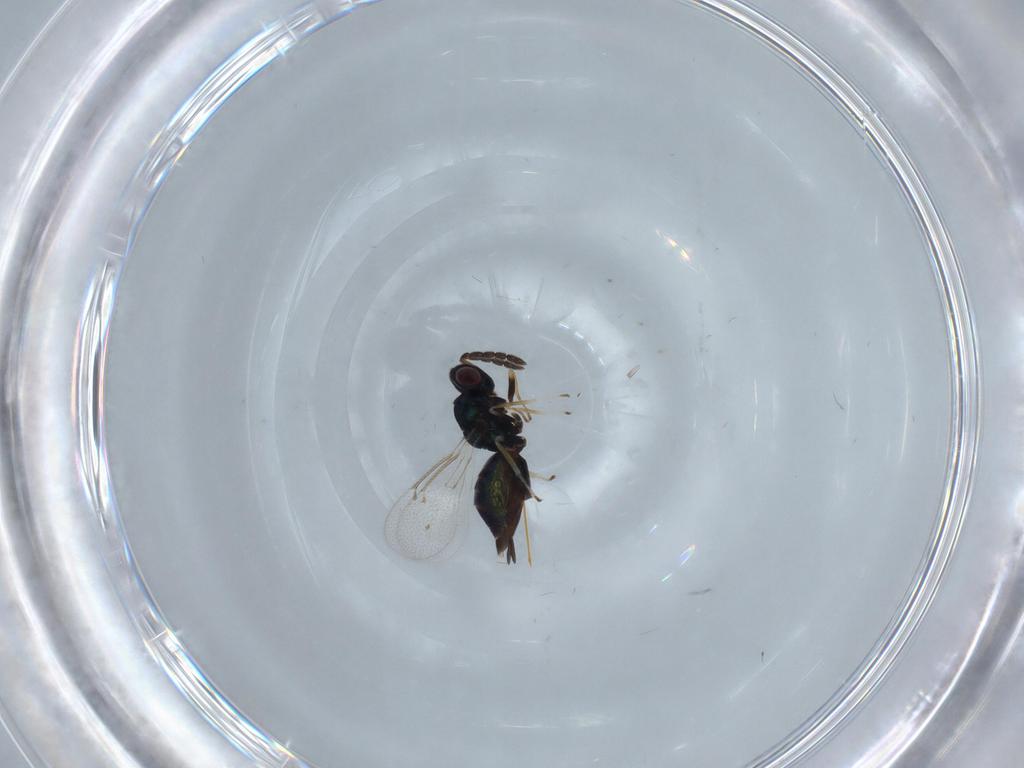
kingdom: Animalia
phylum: Arthropoda
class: Insecta
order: Hymenoptera
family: Eulophidae
